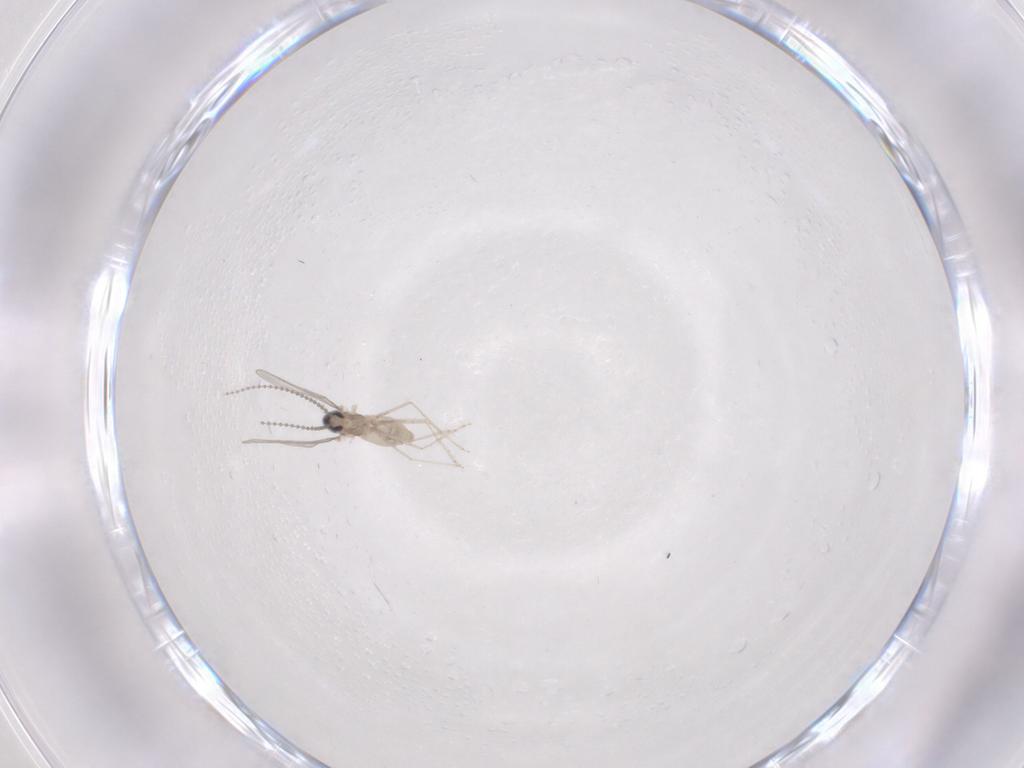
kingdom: Animalia
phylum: Arthropoda
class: Insecta
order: Diptera
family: Cecidomyiidae
